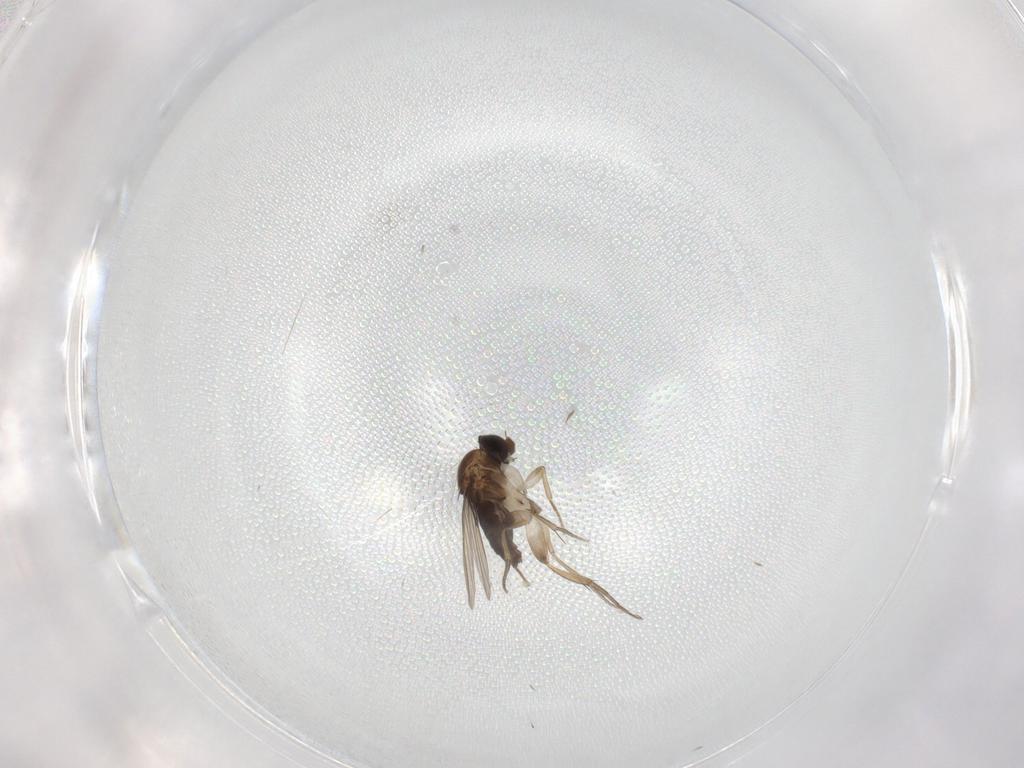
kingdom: Animalia
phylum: Arthropoda
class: Insecta
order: Diptera
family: Phoridae
